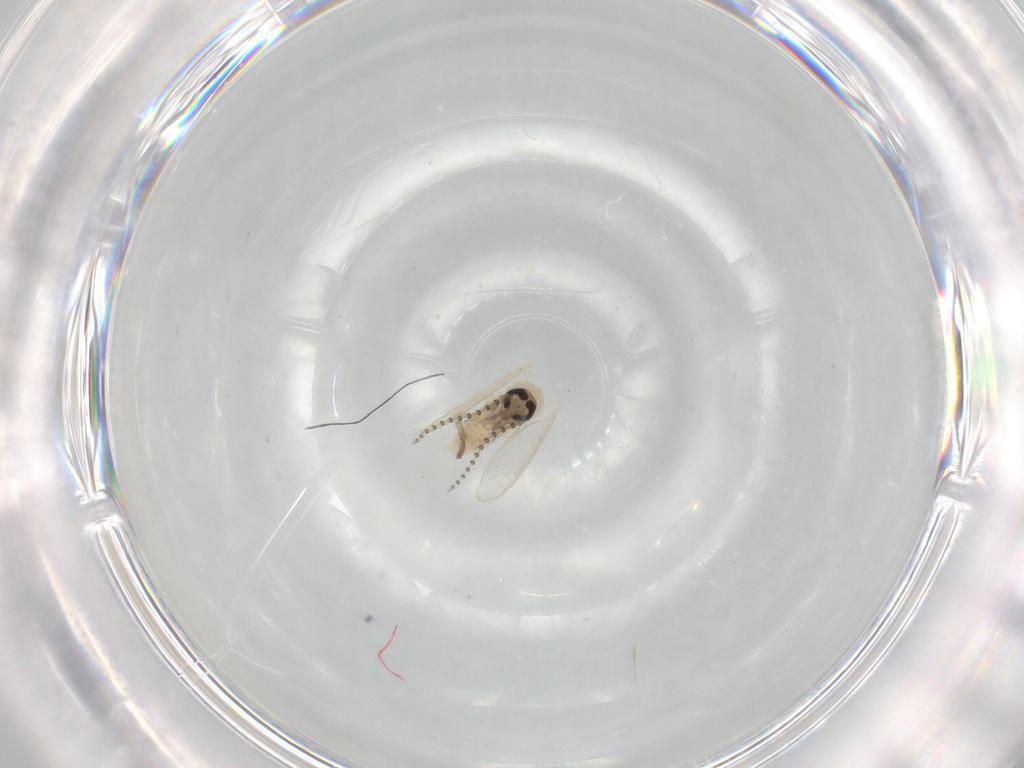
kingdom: Animalia
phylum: Arthropoda
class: Insecta
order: Diptera
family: Psychodidae
